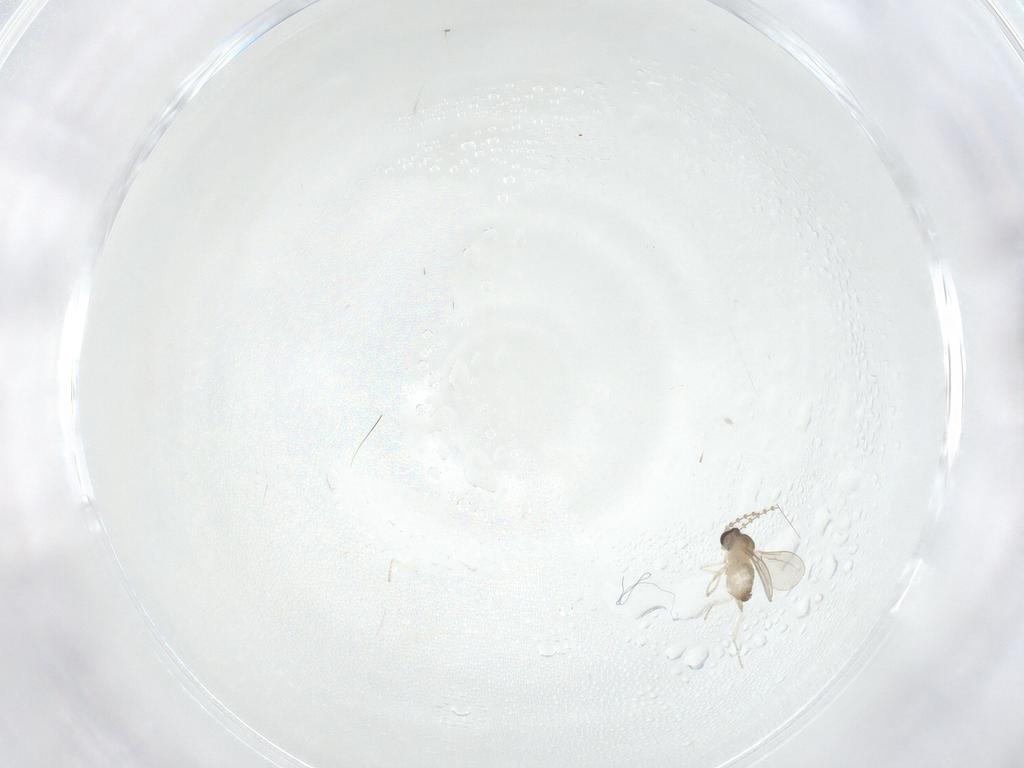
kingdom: Animalia
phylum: Arthropoda
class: Insecta
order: Diptera
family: Cecidomyiidae
